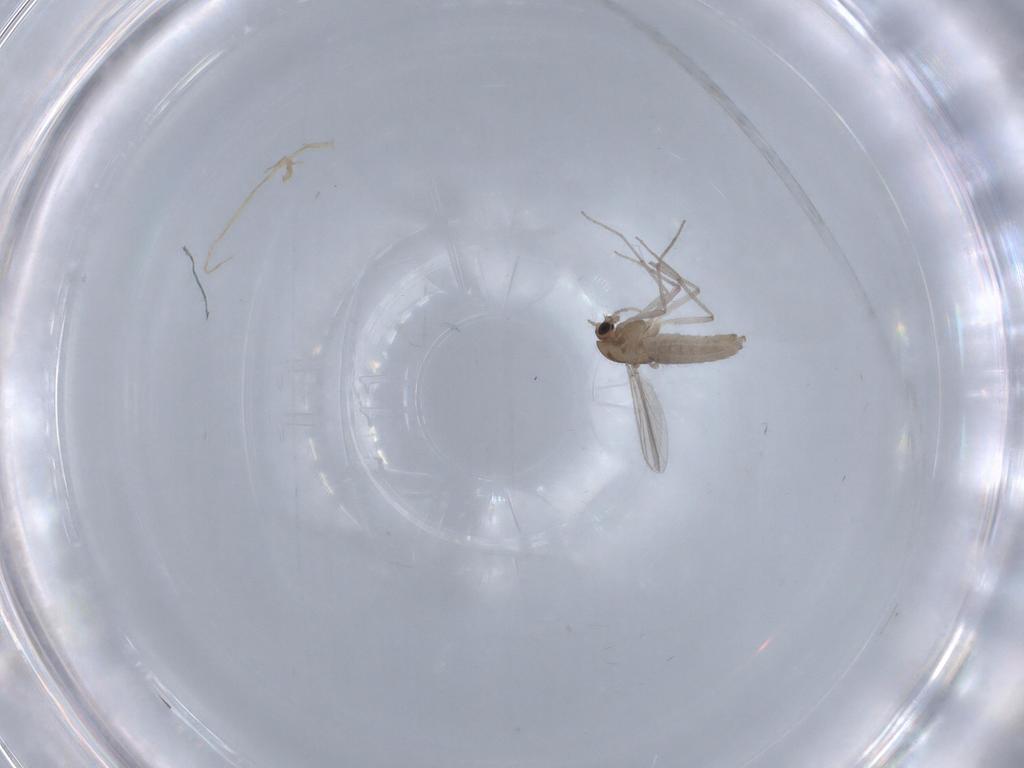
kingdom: Animalia
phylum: Arthropoda
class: Insecta
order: Diptera
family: Chironomidae
